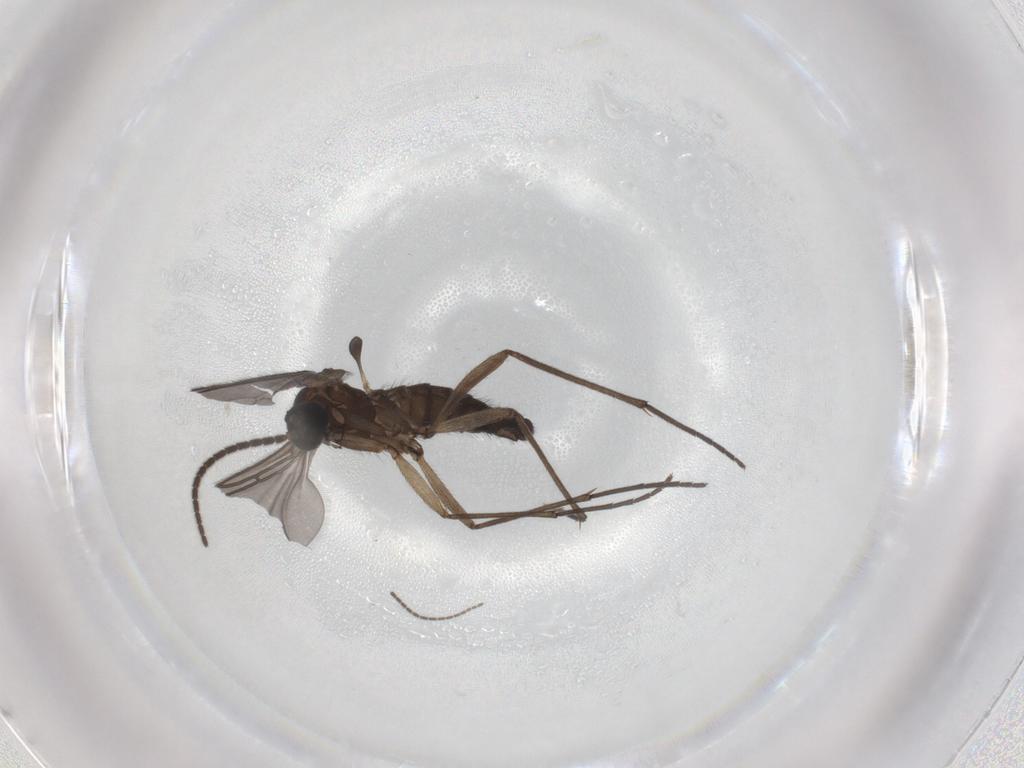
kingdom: Animalia
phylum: Arthropoda
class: Insecta
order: Diptera
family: Sciaridae
